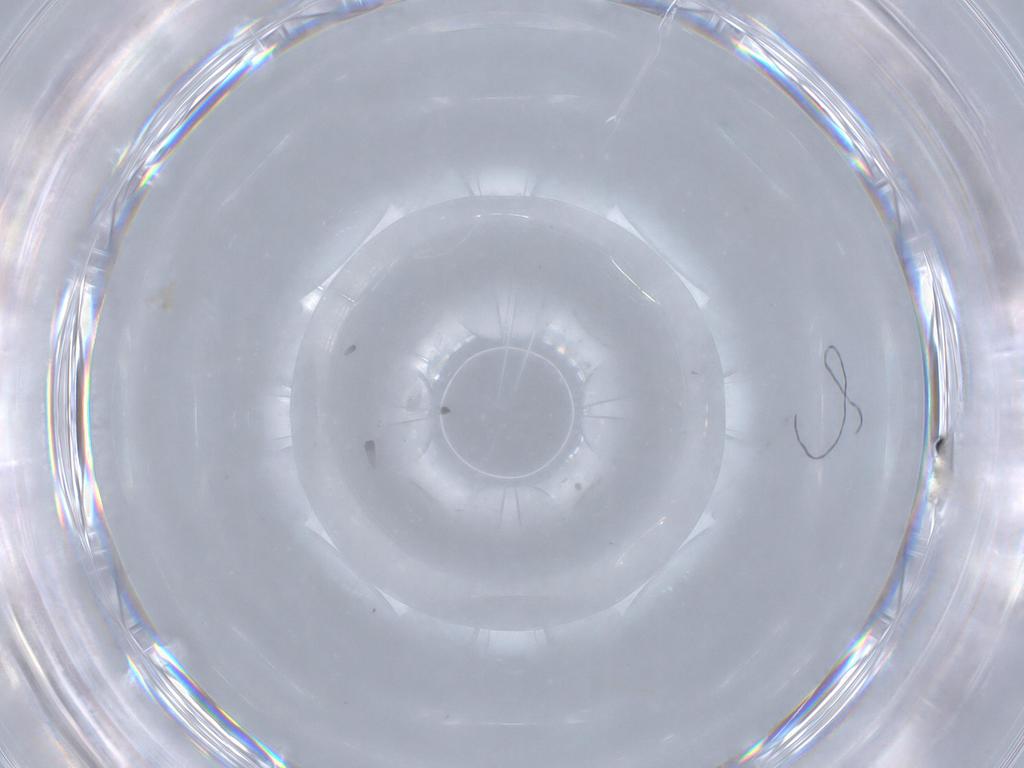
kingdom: Animalia
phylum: Arthropoda
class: Insecta
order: Diptera
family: Cecidomyiidae
